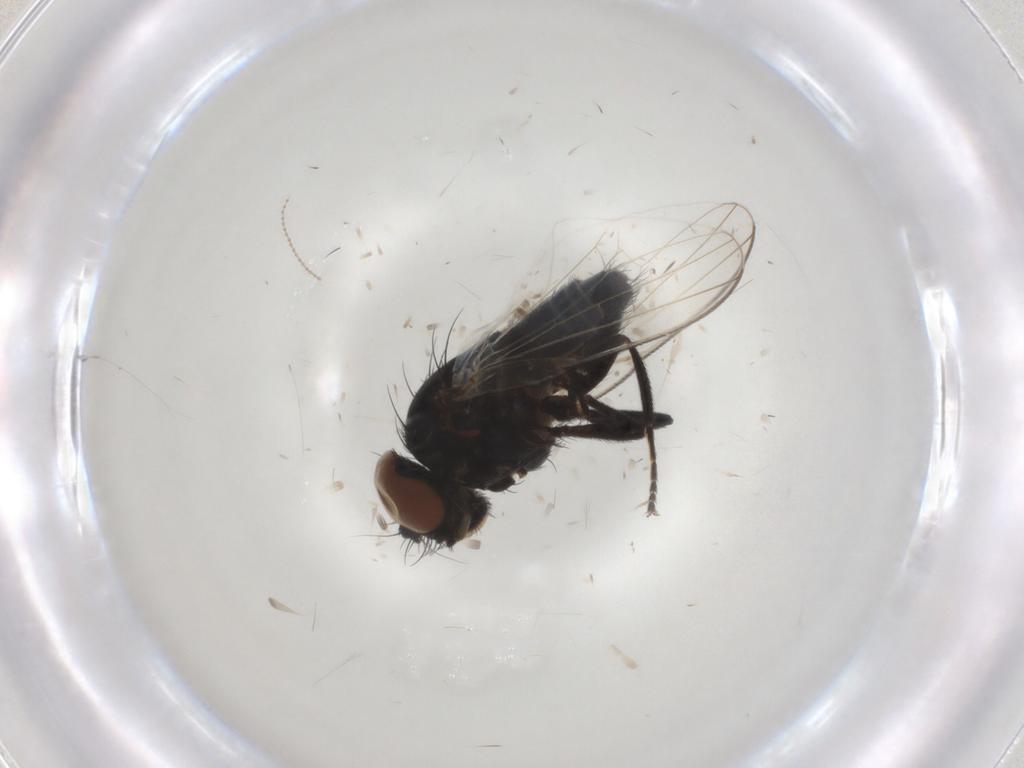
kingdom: Animalia
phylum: Arthropoda
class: Insecta
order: Diptera
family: Milichiidae
